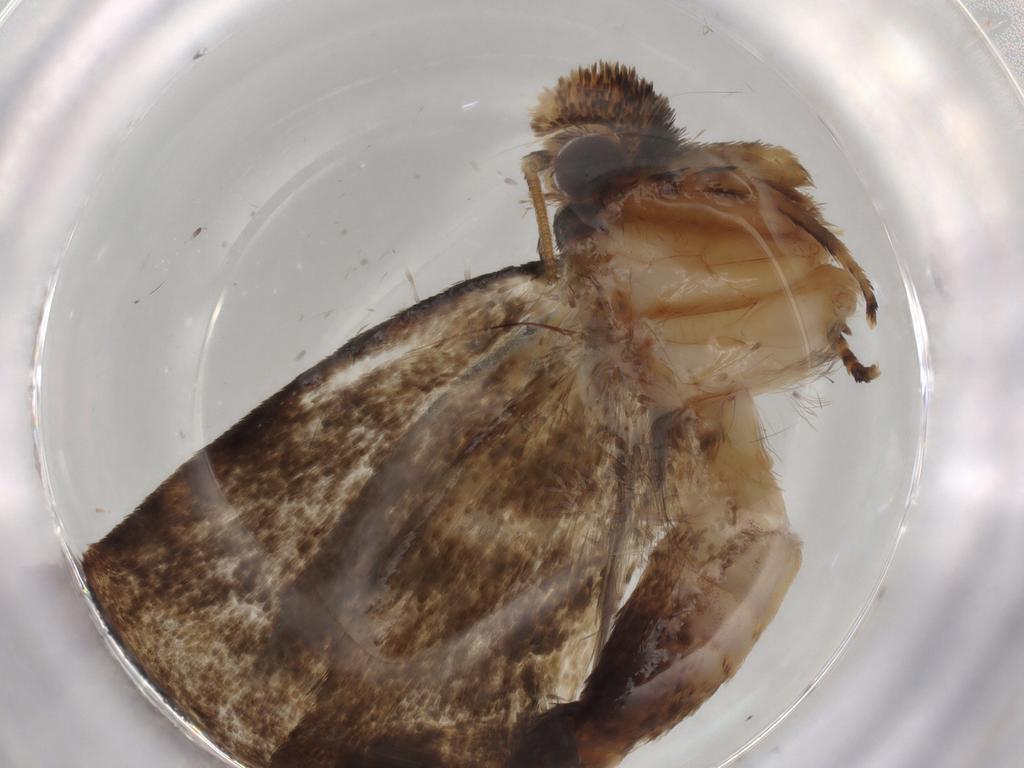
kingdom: Animalia
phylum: Arthropoda
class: Insecta
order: Lepidoptera
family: Tineidae
